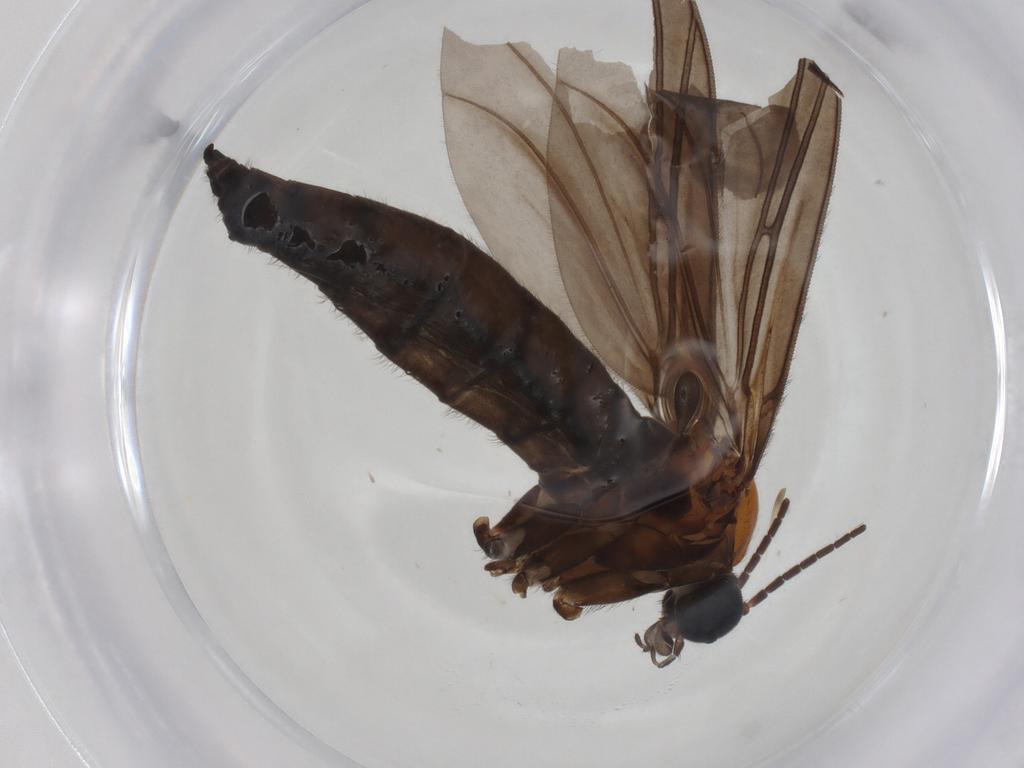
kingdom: Animalia
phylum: Arthropoda
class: Insecta
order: Diptera
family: Sciaridae
